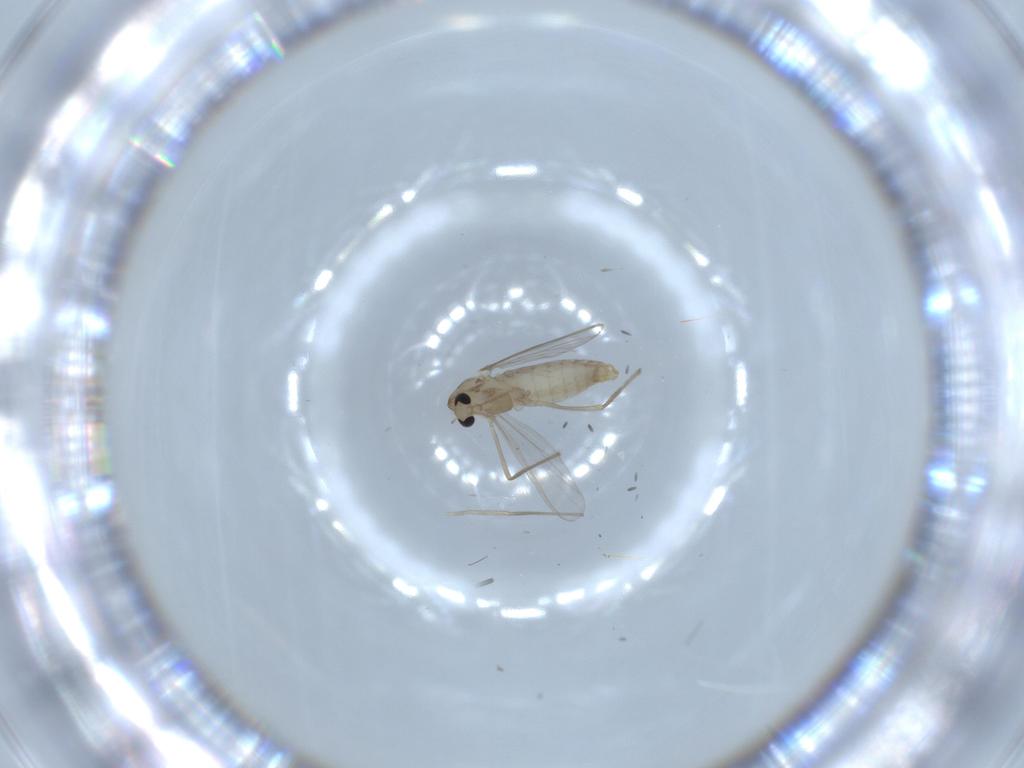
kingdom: Animalia
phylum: Arthropoda
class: Insecta
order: Diptera
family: Chironomidae
